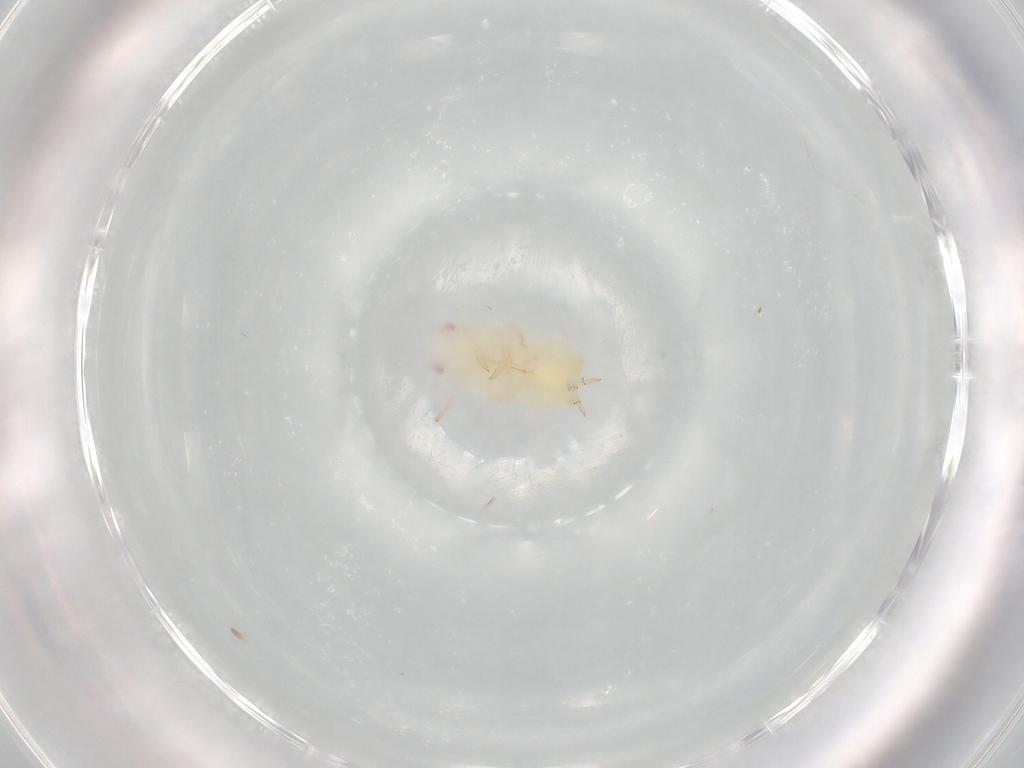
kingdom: Animalia
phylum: Arthropoda
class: Insecta
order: Hemiptera
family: Flatidae
